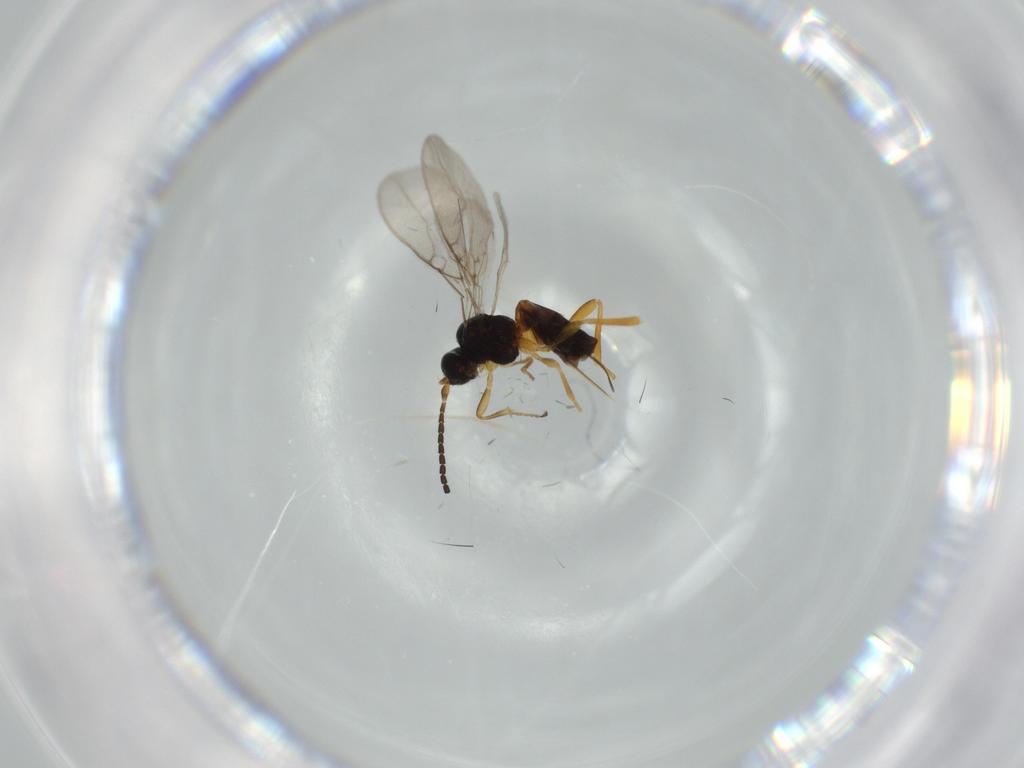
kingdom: Animalia
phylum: Arthropoda
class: Insecta
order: Hymenoptera
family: Braconidae
